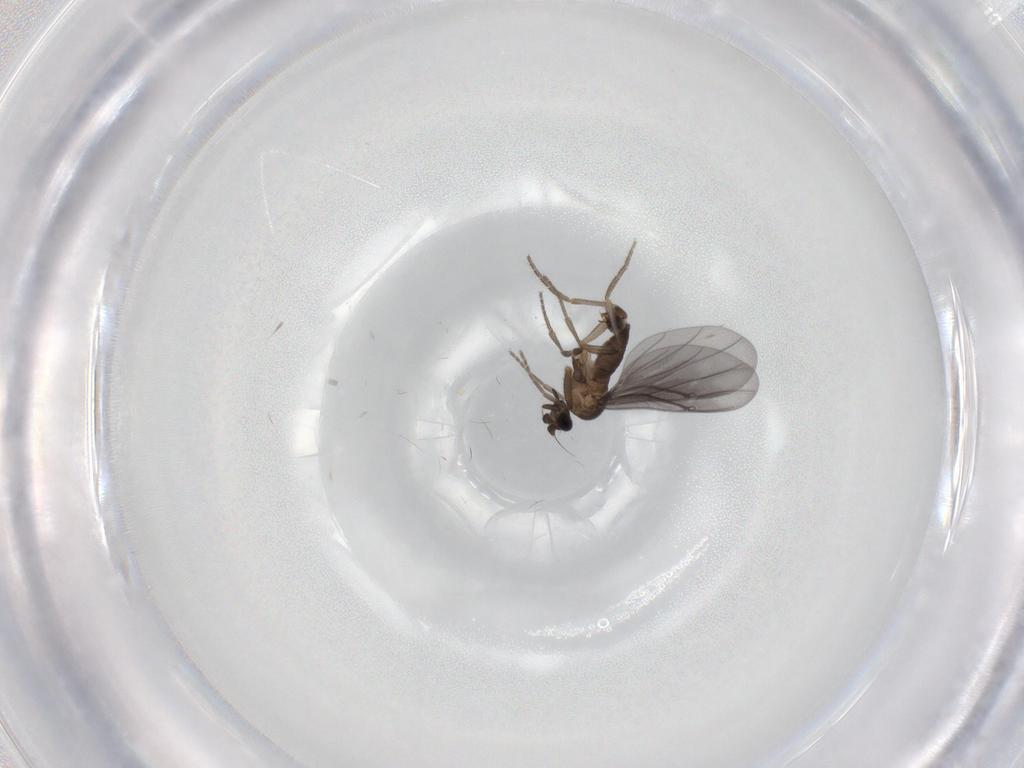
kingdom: Animalia
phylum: Arthropoda
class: Insecta
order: Diptera
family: Phoridae
